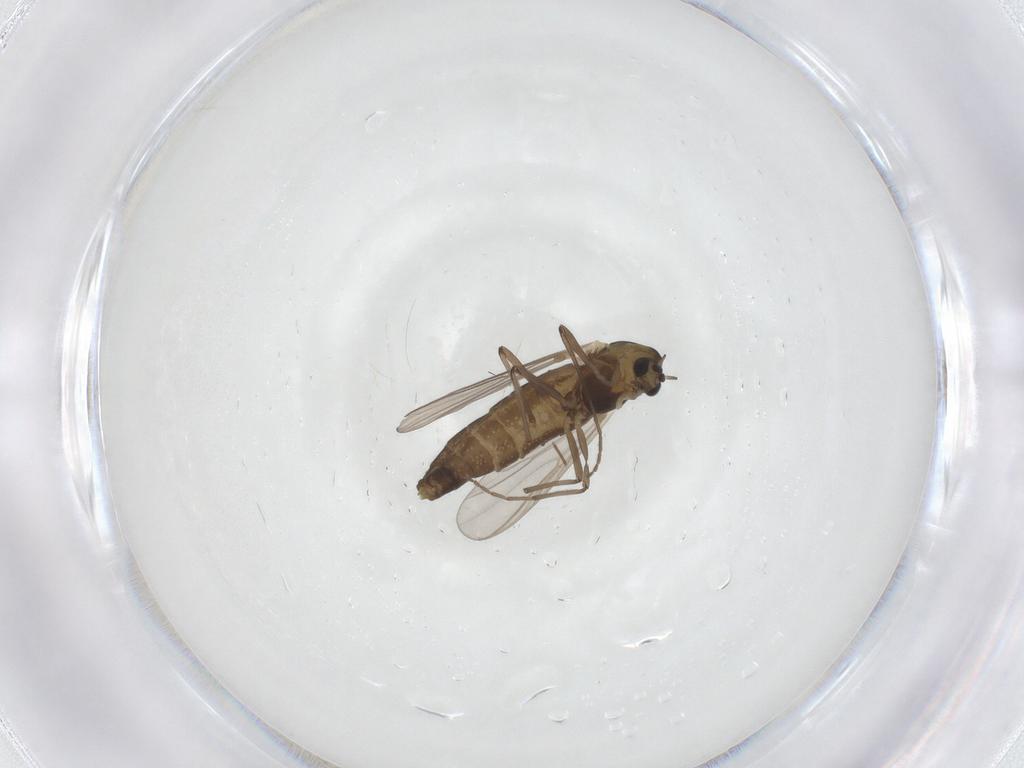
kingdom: Animalia
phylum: Arthropoda
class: Insecta
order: Diptera
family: Chironomidae
